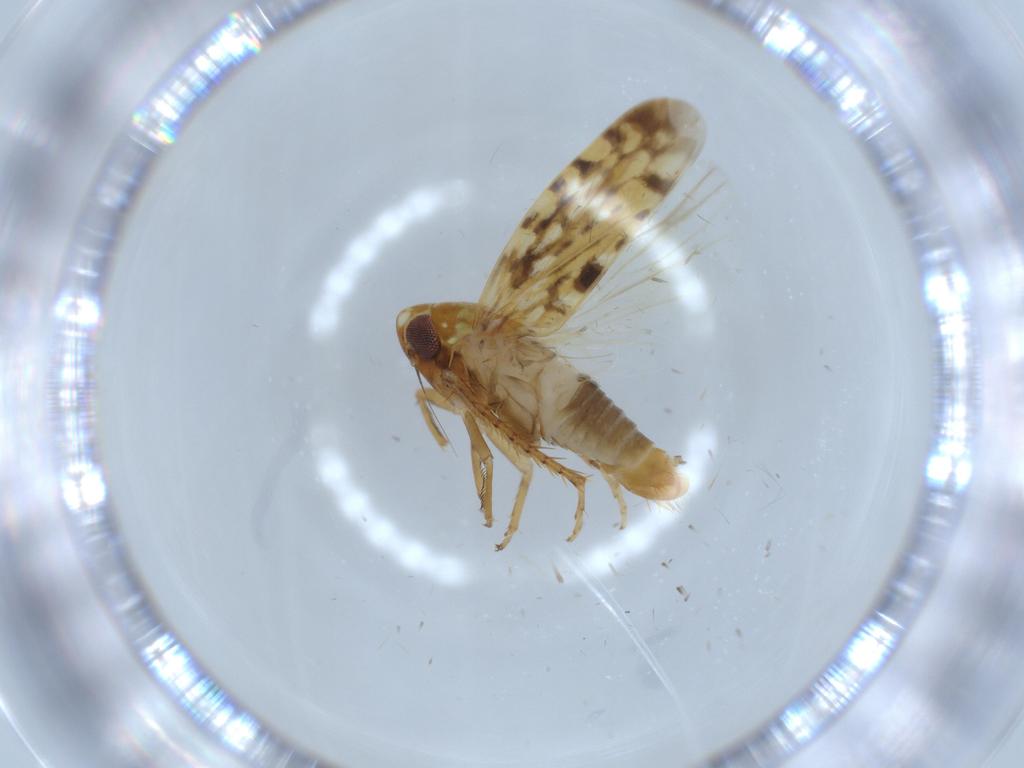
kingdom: Animalia
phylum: Arthropoda
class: Insecta
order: Hemiptera
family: Cicadellidae
